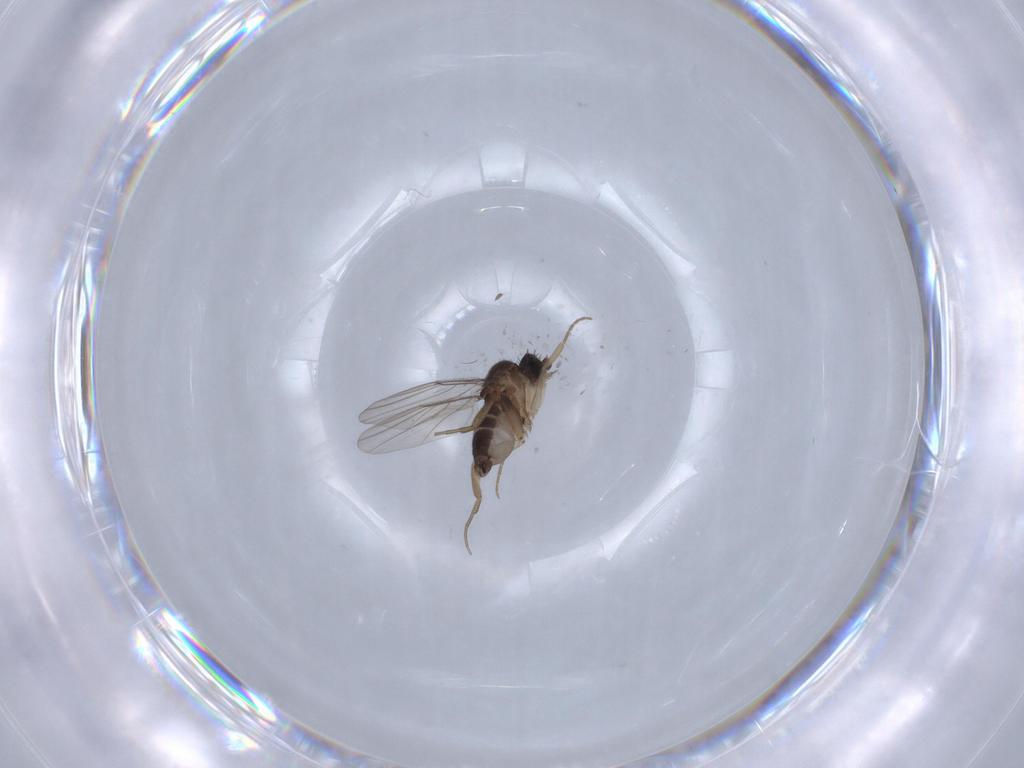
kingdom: Animalia
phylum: Arthropoda
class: Insecta
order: Diptera
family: Phoridae
